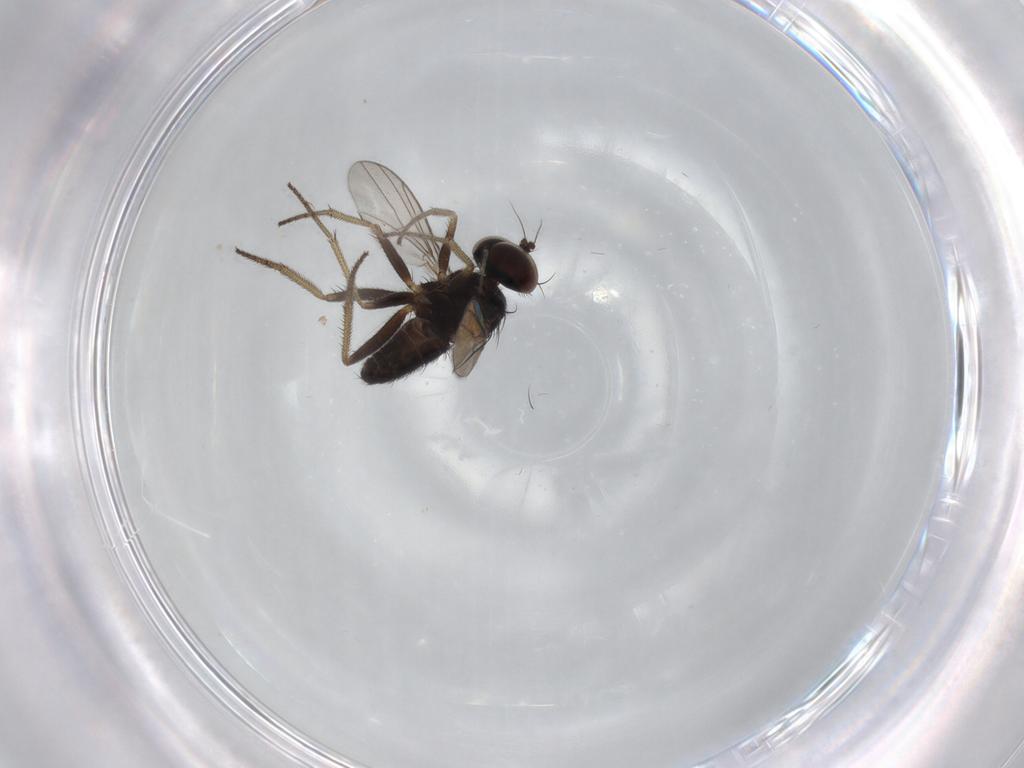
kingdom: Animalia
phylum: Arthropoda
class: Insecta
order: Diptera
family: Dolichopodidae
